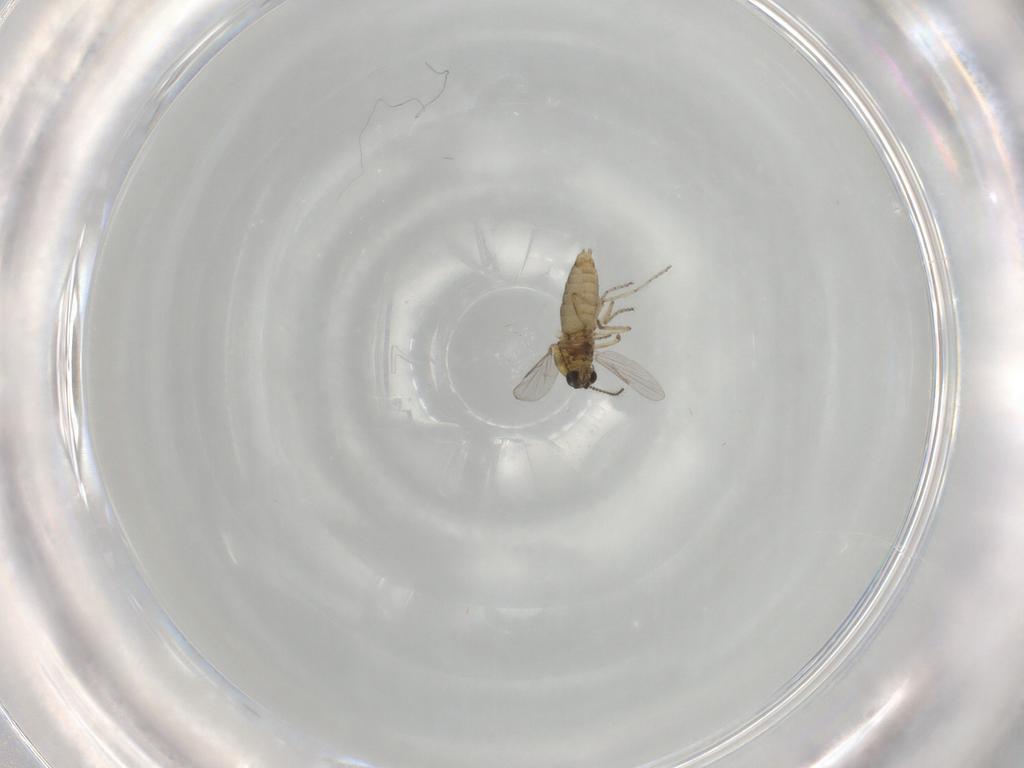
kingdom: Animalia
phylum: Arthropoda
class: Insecta
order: Diptera
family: Ceratopogonidae
